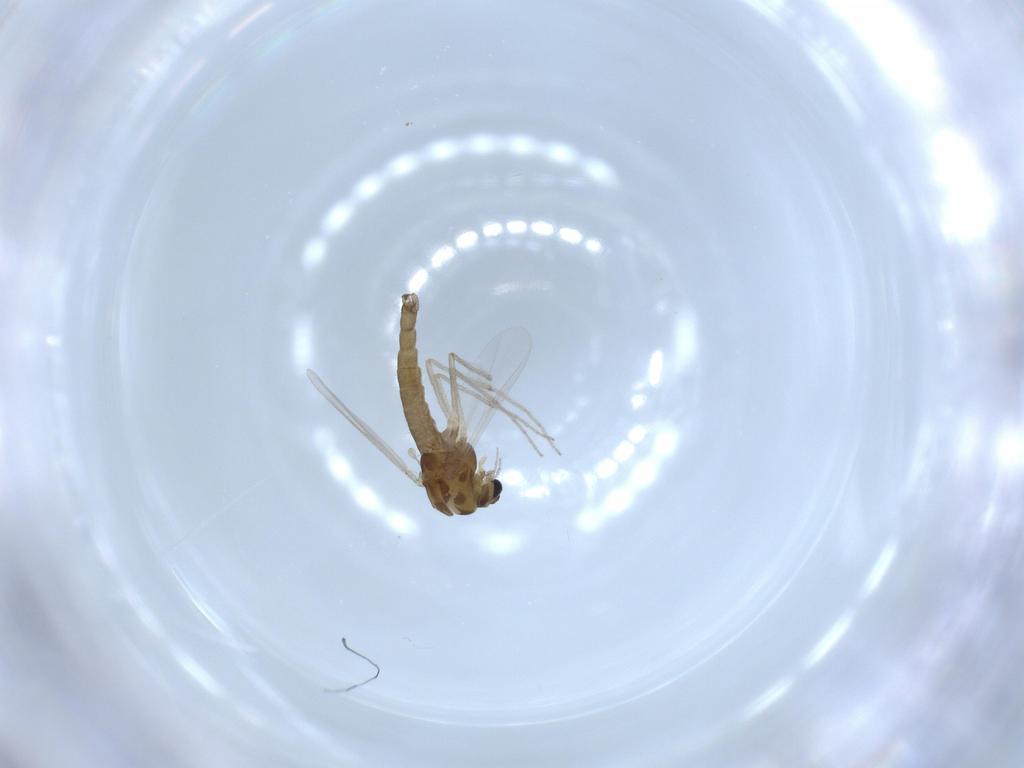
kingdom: Animalia
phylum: Arthropoda
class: Insecta
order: Diptera
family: Chironomidae
